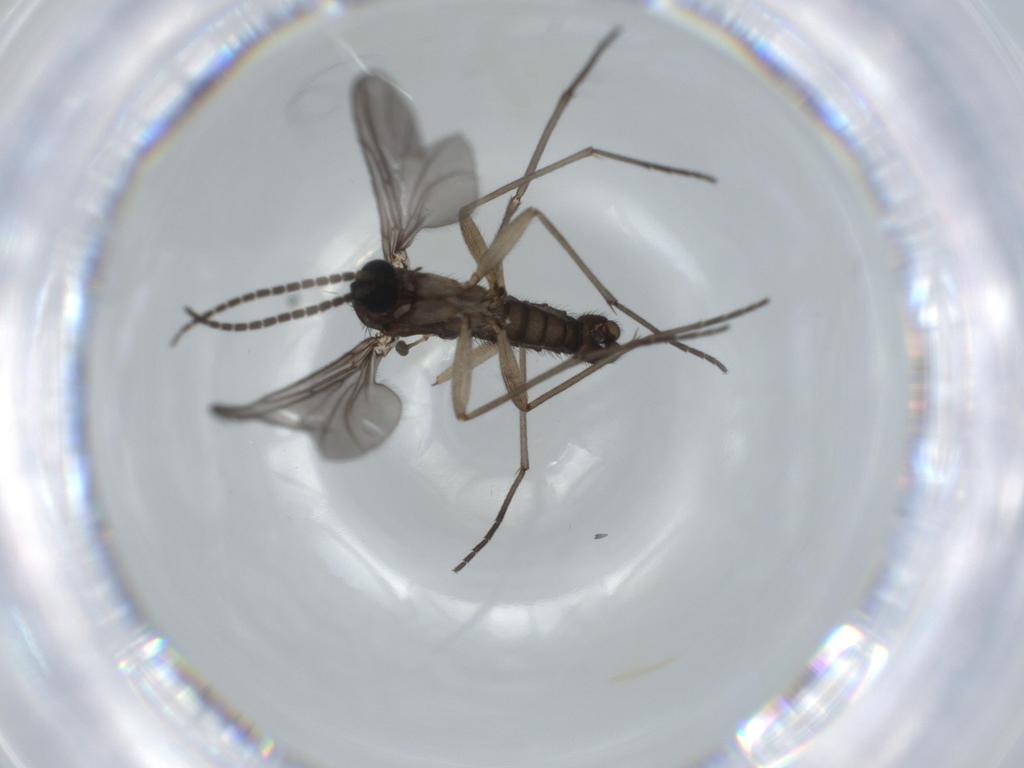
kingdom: Animalia
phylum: Arthropoda
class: Insecta
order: Diptera
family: Sciaridae
